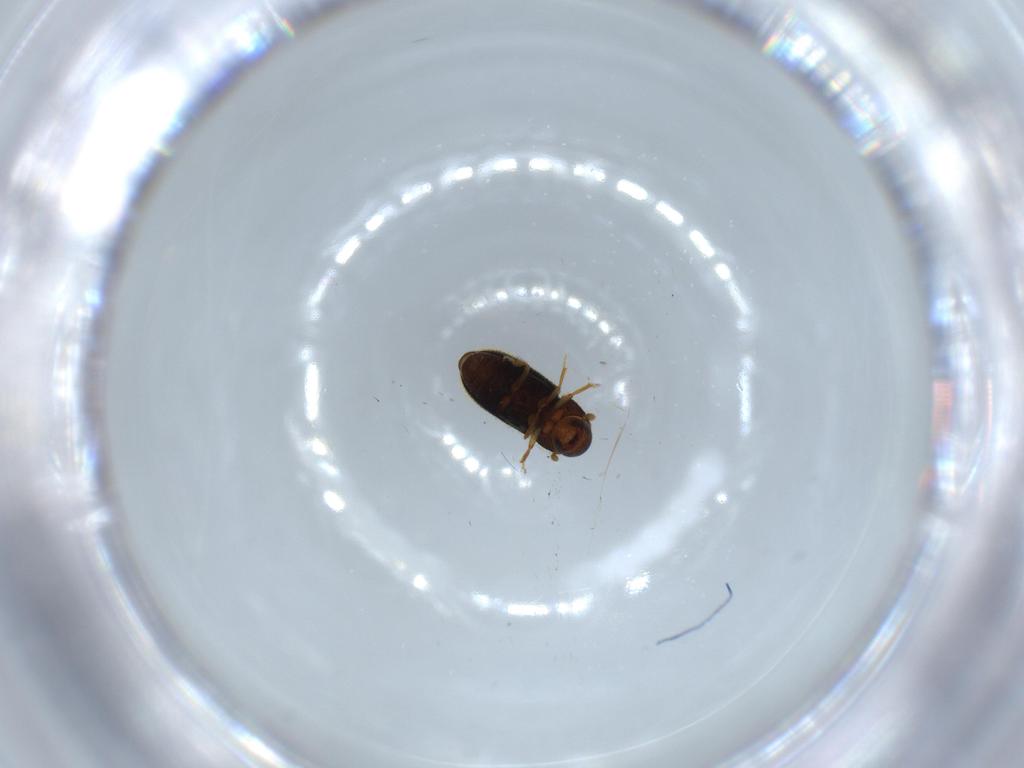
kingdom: Animalia
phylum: Arthropoda
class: Insecta
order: Coleoptera
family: Curculionidae
